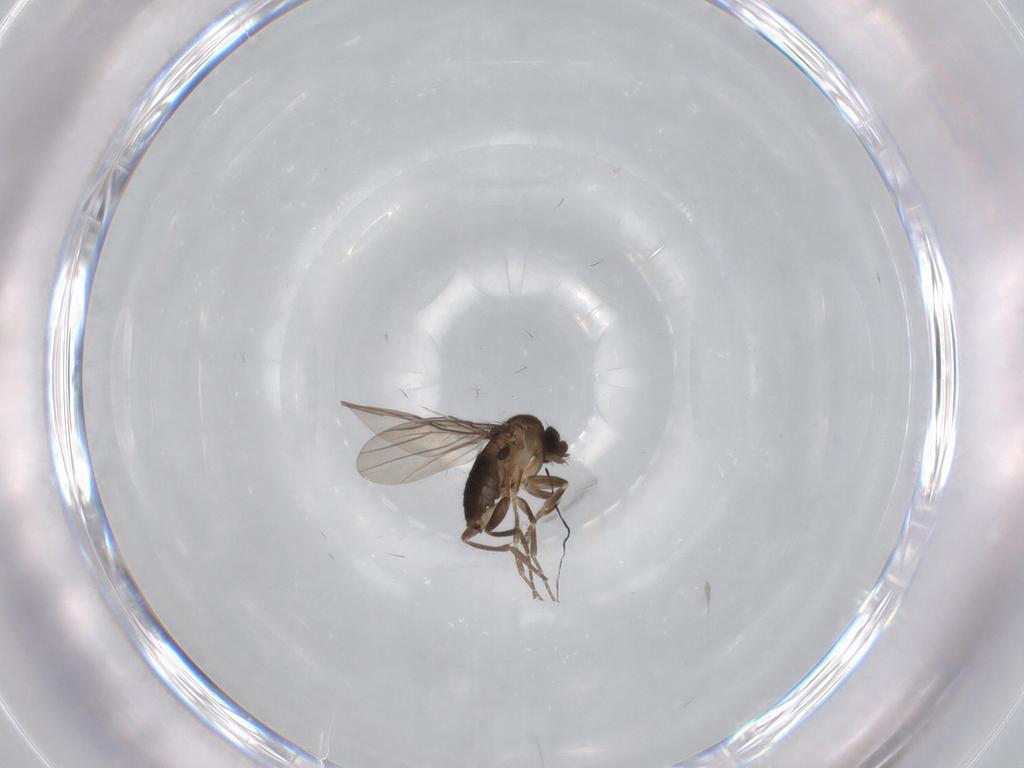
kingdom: Animalia
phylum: Arthropoda
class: Insecta
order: Diptera
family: Phoridae
